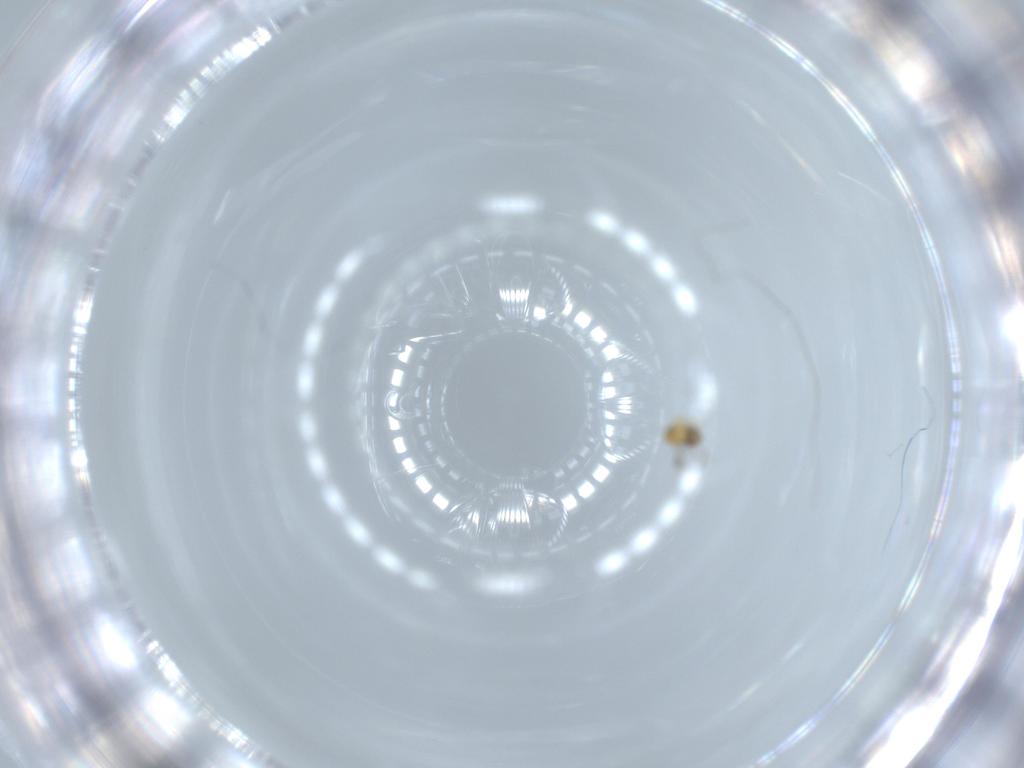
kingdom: Animalia
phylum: Arthropoda
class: Insecta
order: Hymenoptera
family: Trichogrammatidae
